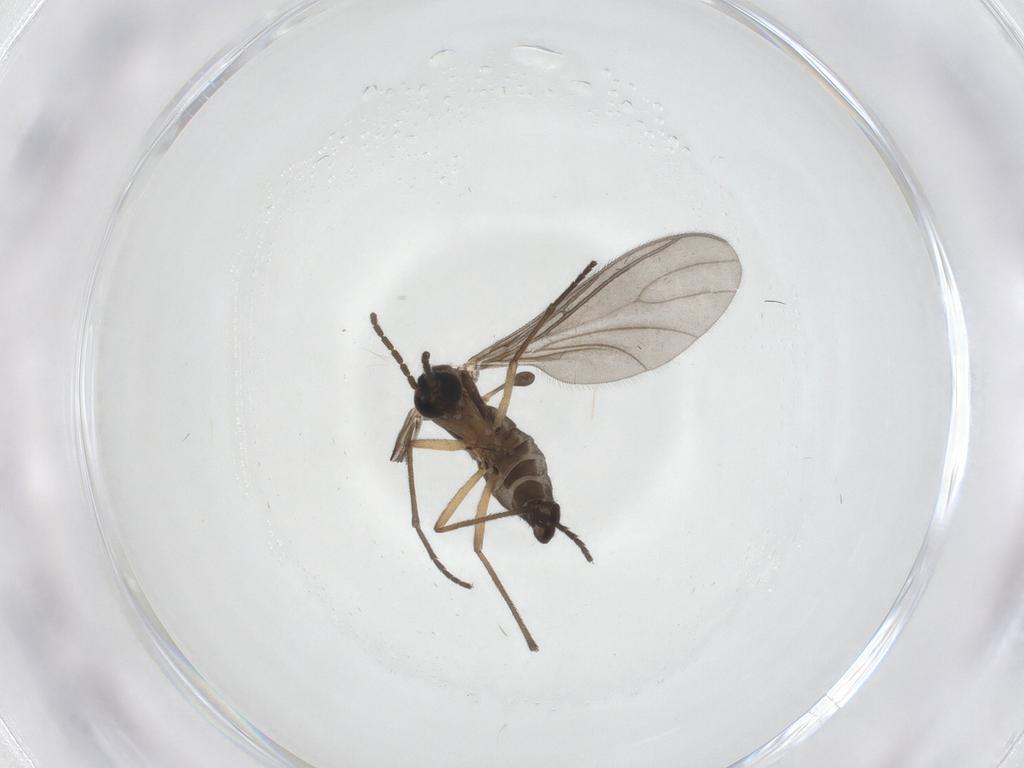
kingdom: Animalia
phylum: Arthropoda
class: Insecta
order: Diptera
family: Sciaridae
